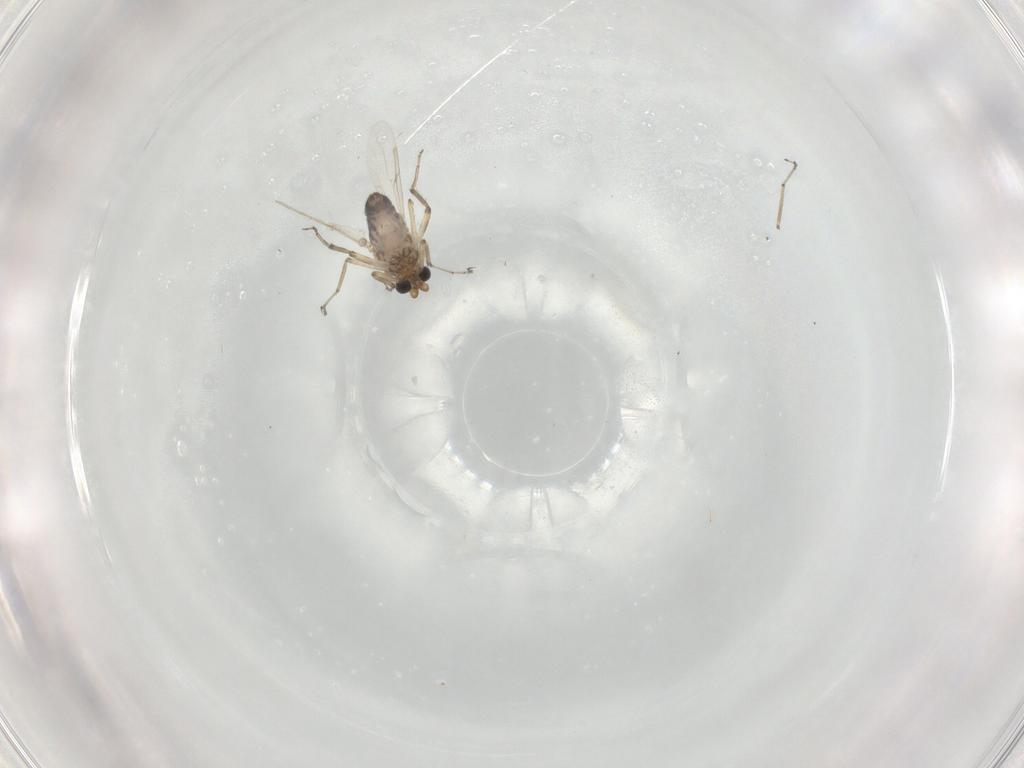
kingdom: Animalia
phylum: Arthropoda
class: Insecta
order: Diptera
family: Ceratopogonidae
